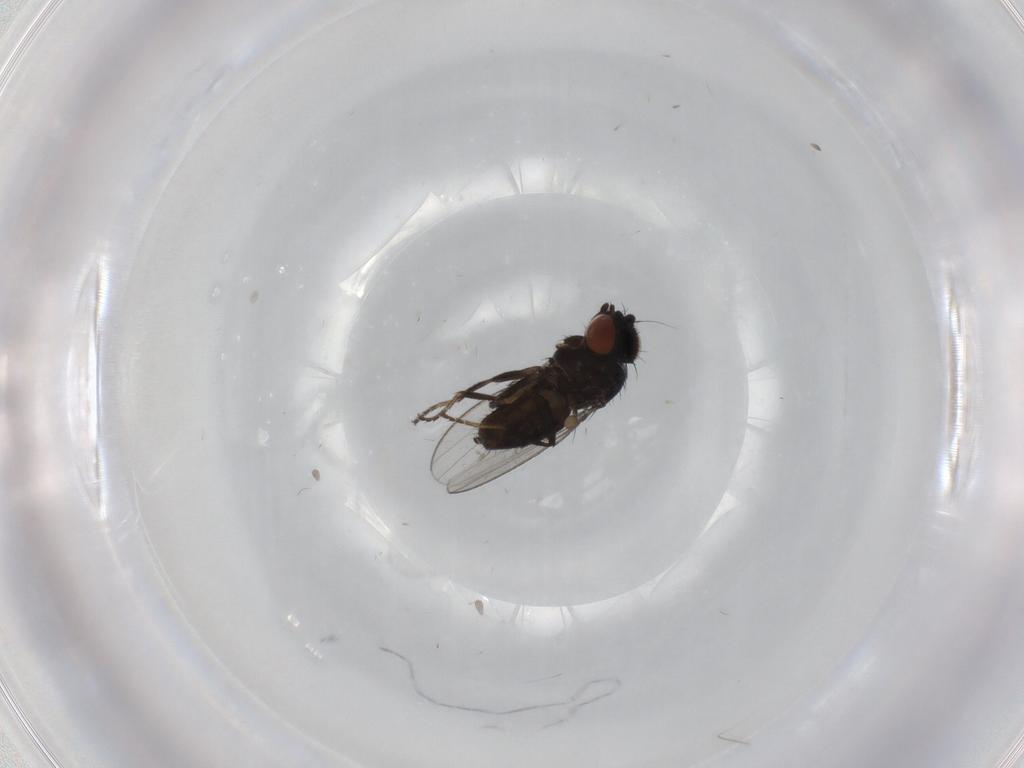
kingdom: Animalia
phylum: Arthropoda
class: Insecta
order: Diptera
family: Milichiidae
